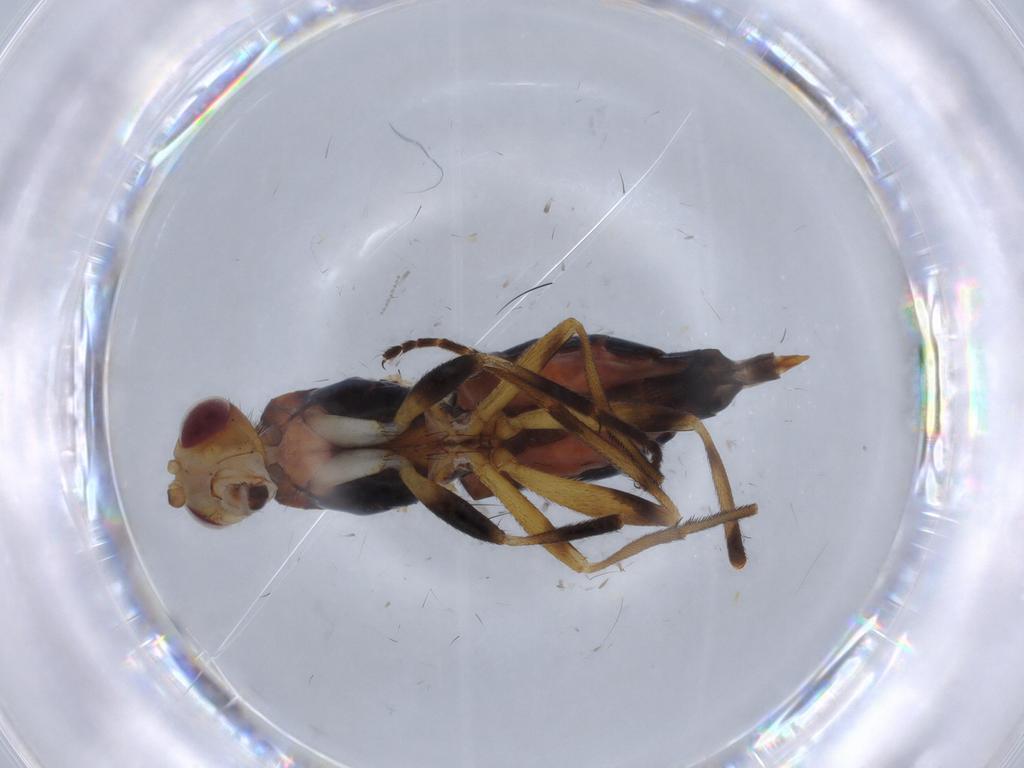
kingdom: Animalia
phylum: Arthropoda
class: Insecta
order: Diptera
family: Chloropidae
